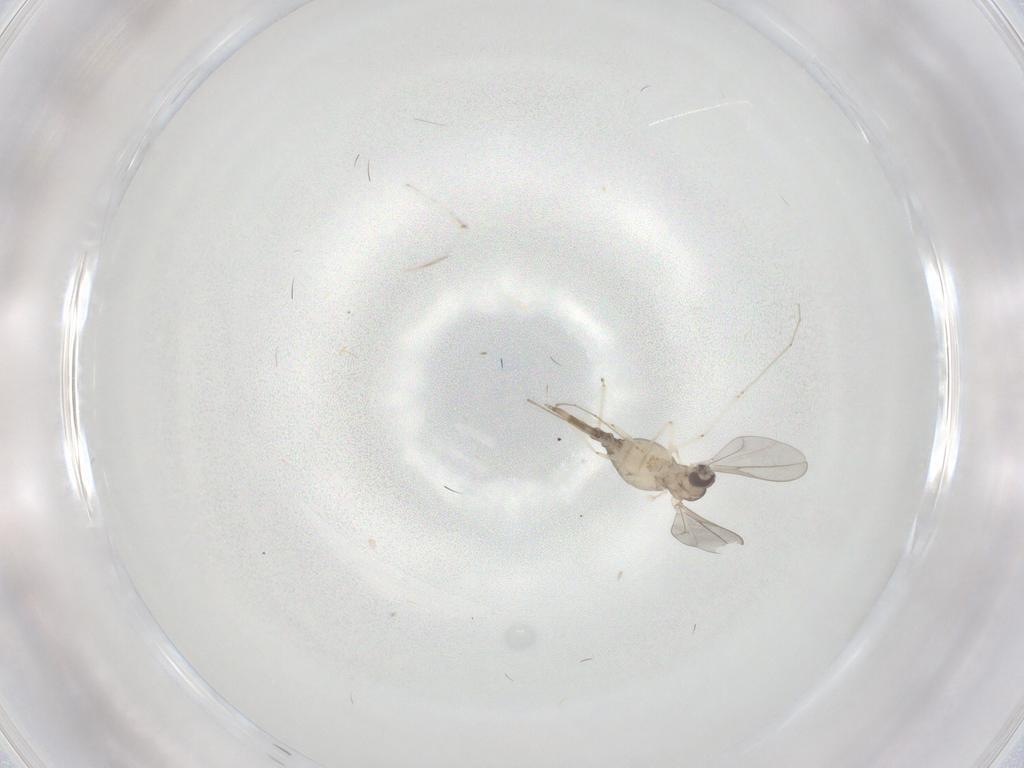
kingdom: Animalia
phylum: Arthropoda
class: Insecta
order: Diptera
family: Cecidomyiidae
